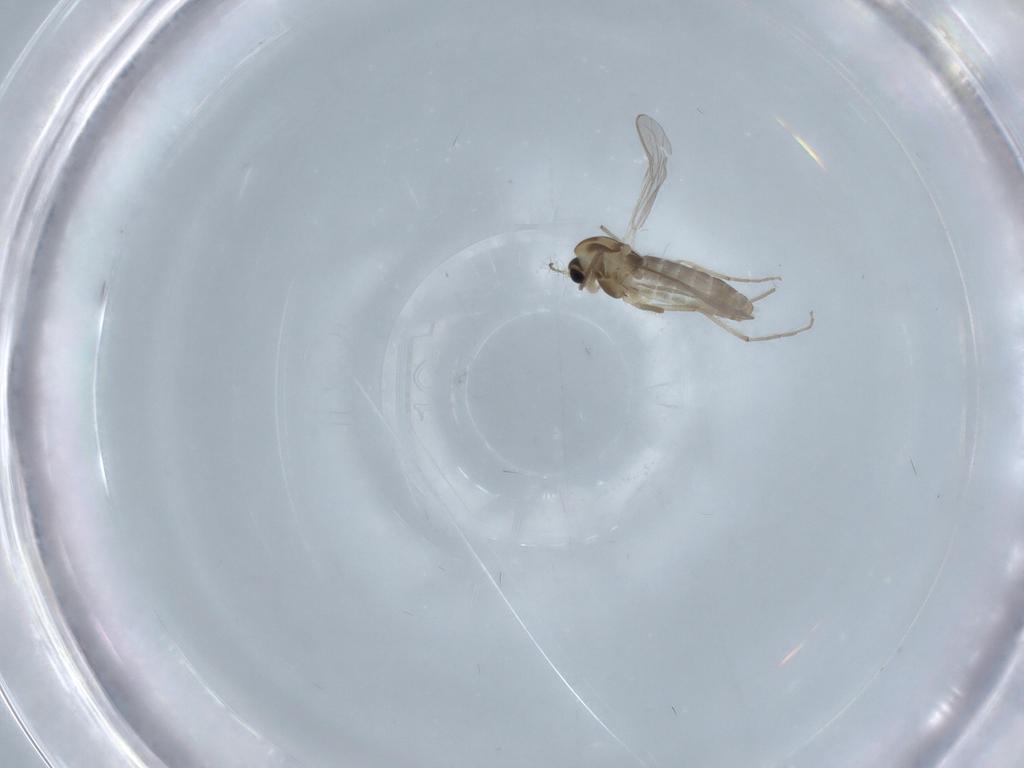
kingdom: Animalia
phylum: Arthropoda
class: Insecta
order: Diptera
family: Chironomidae
